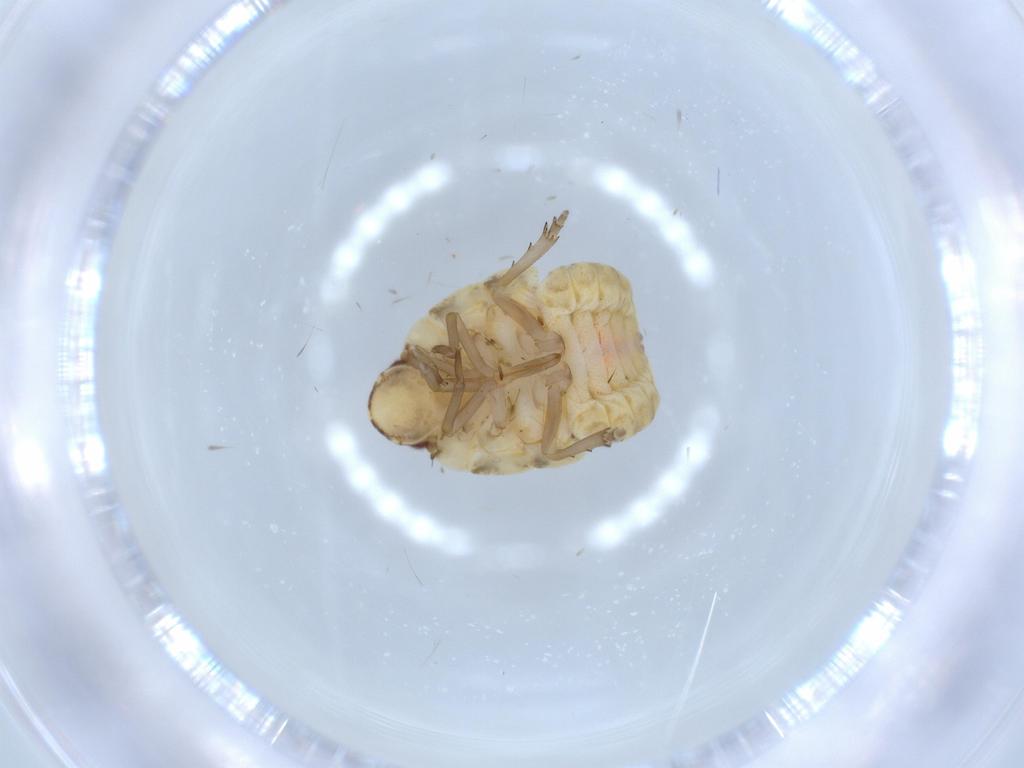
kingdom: Animalia
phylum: Arthropoda
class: Insecta
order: Hemiptera
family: Flatidae
